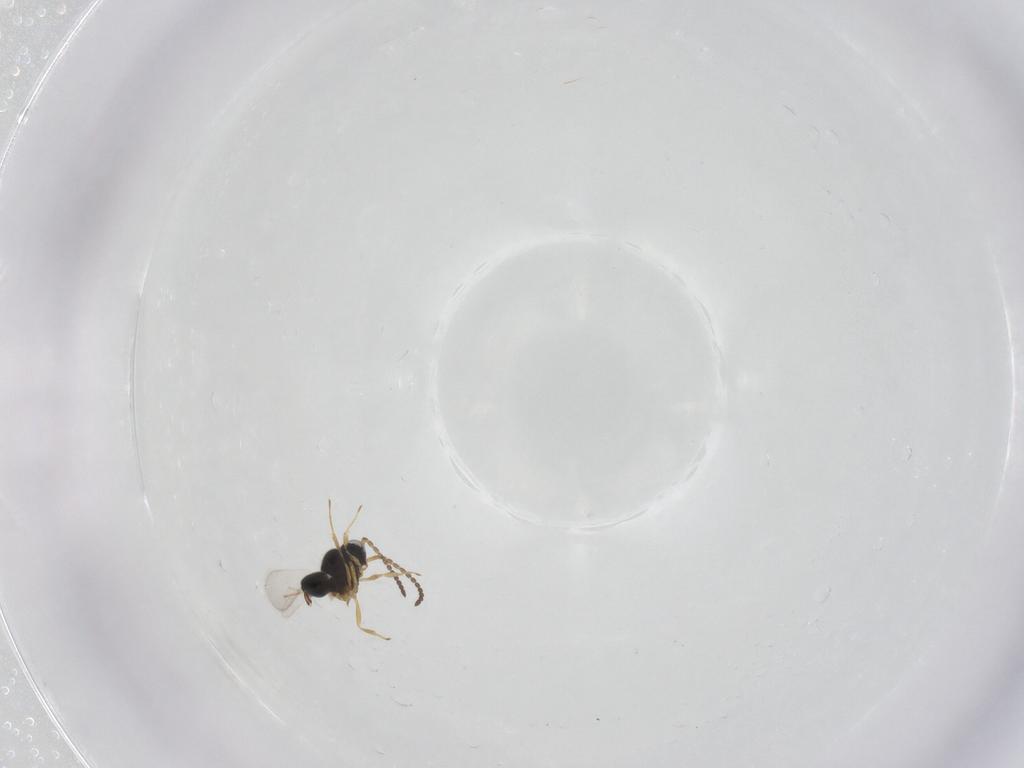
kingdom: Animalia
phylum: Arthropoda
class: Insecta
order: Hymenoptera
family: Scelionidae
